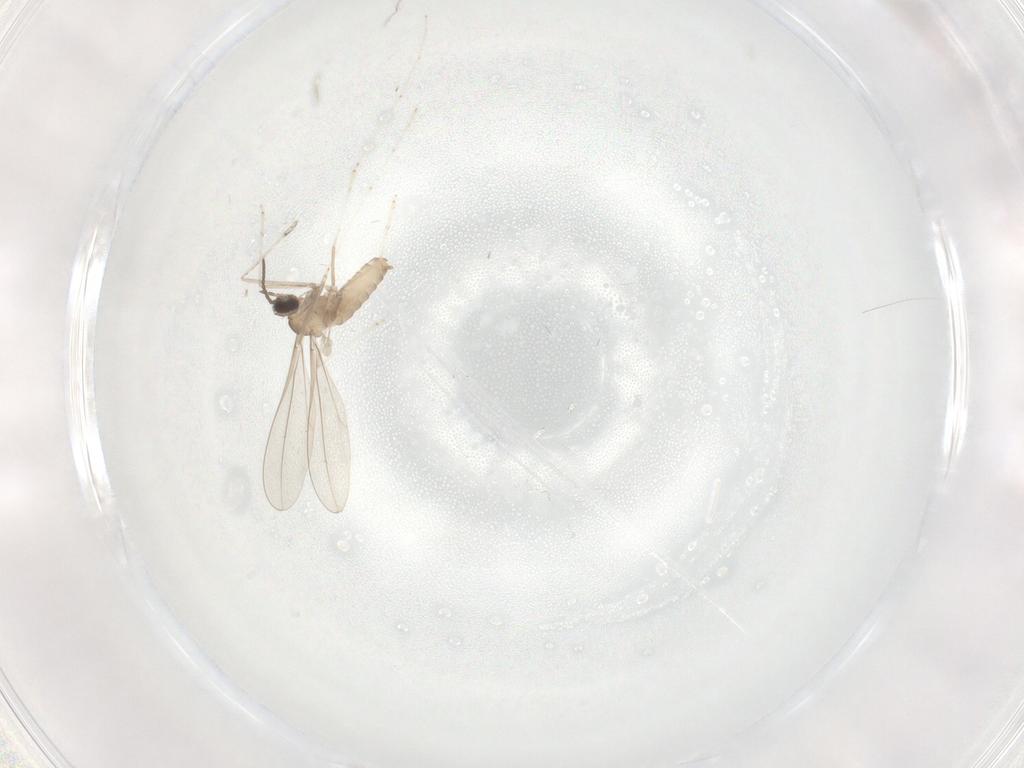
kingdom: Animalia
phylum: Arthropoda
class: Insecta
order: Diptera
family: Cecidomyiidae
